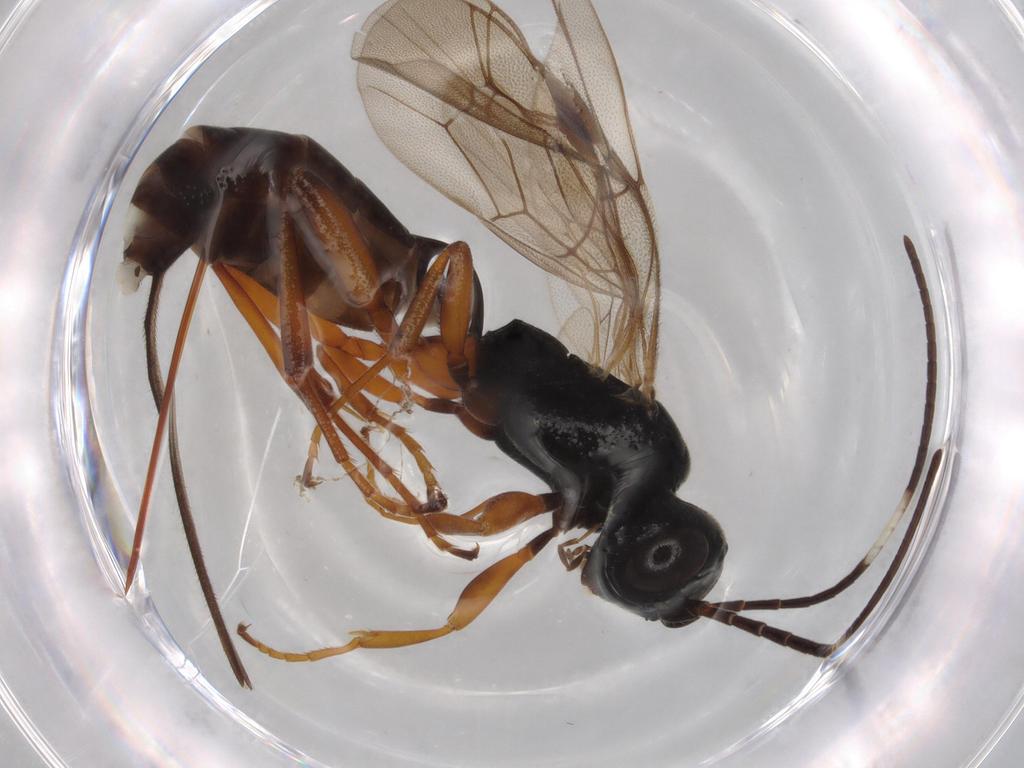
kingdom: Animalia
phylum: Arthropoda
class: Insecta
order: Hymenoptera
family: Ichneumonidae
